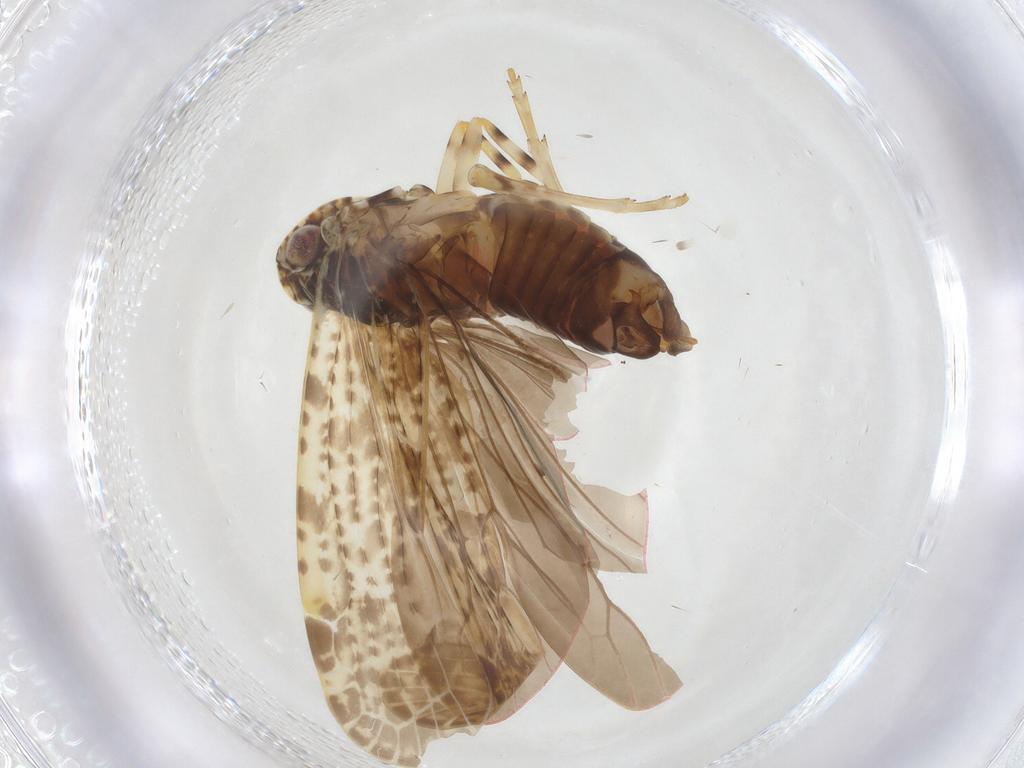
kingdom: Animalia
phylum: Arthropoda
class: Insecta
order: Hemiptera
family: Achilidae
